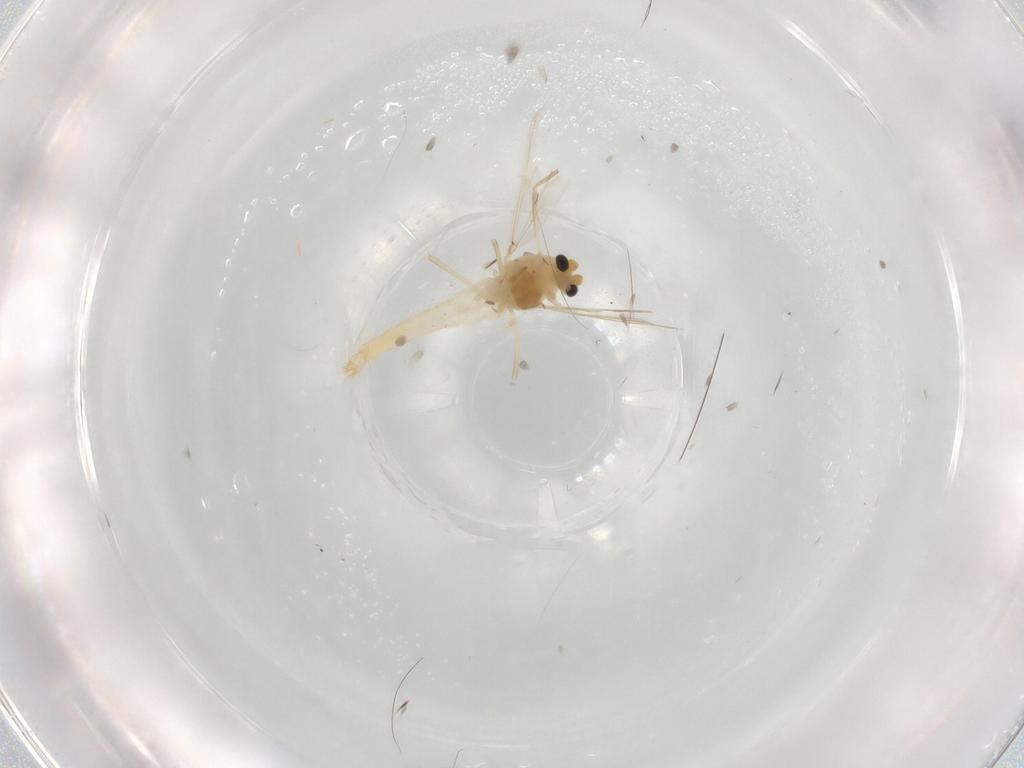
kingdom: Animalia
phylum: Arthropoda
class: Insecta
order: Diptera
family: Chironomidae
